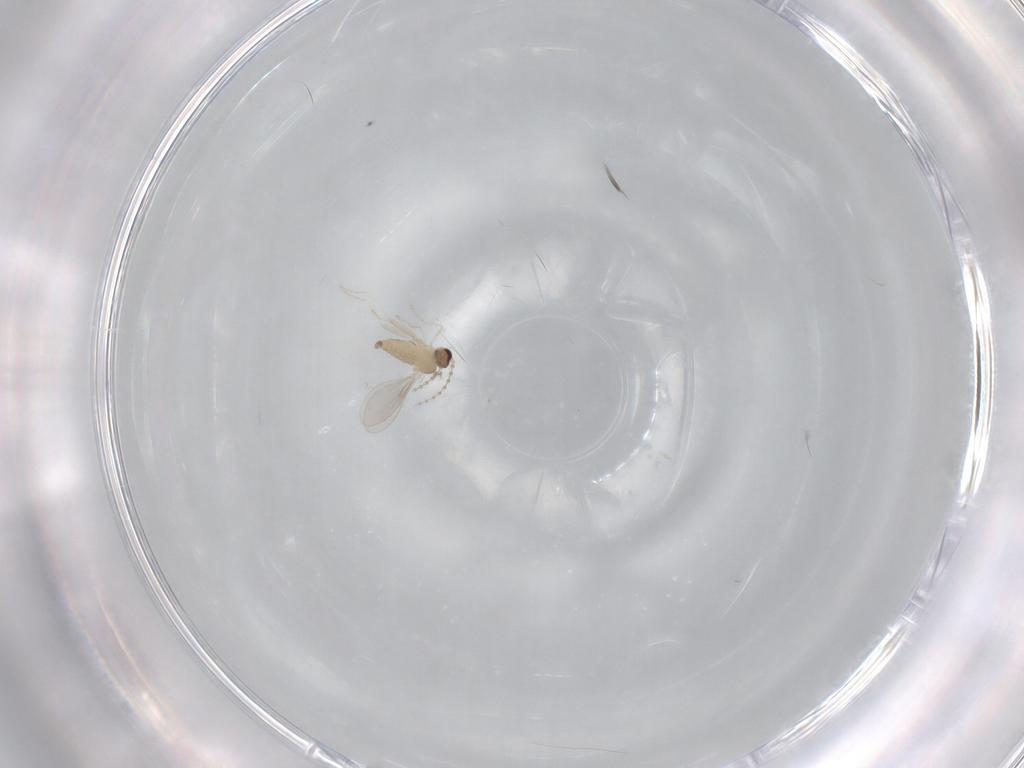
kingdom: Animalia
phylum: Arthropoda
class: Insecta
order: Diptera
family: Cecidomyiidae
